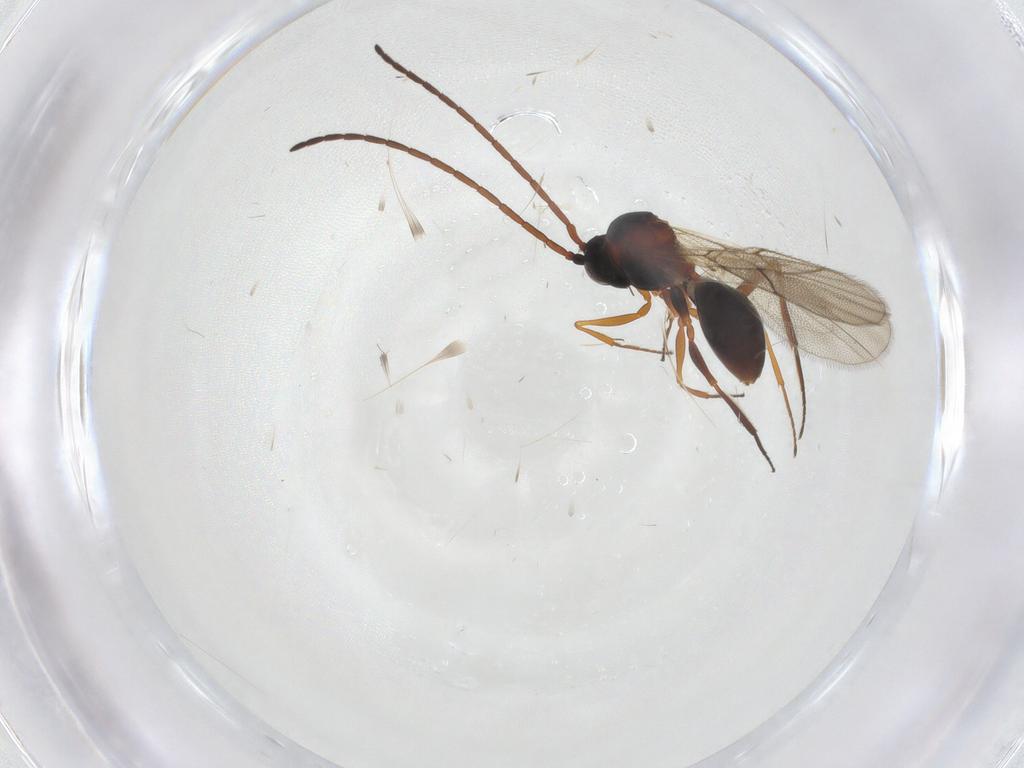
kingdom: Animalia
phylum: Arthropoda
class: Insecta
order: Hymenoptera
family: Figitidae
